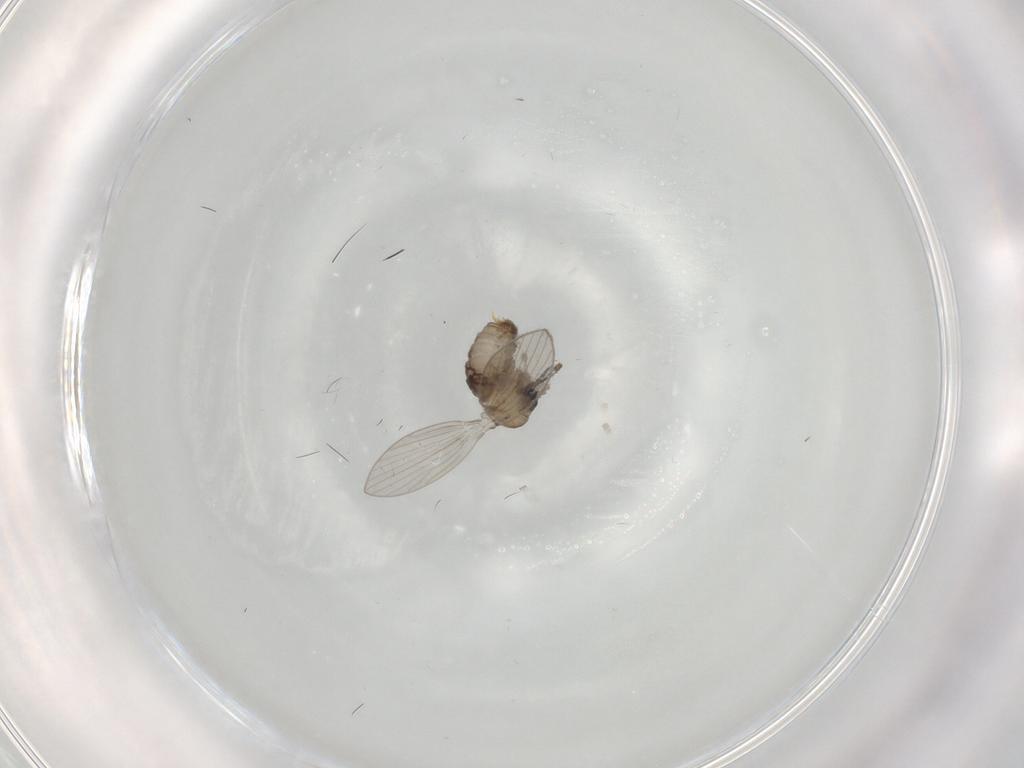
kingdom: Animalia
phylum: Arthropoda
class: Insecta
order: Diptera
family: Psychodidae
